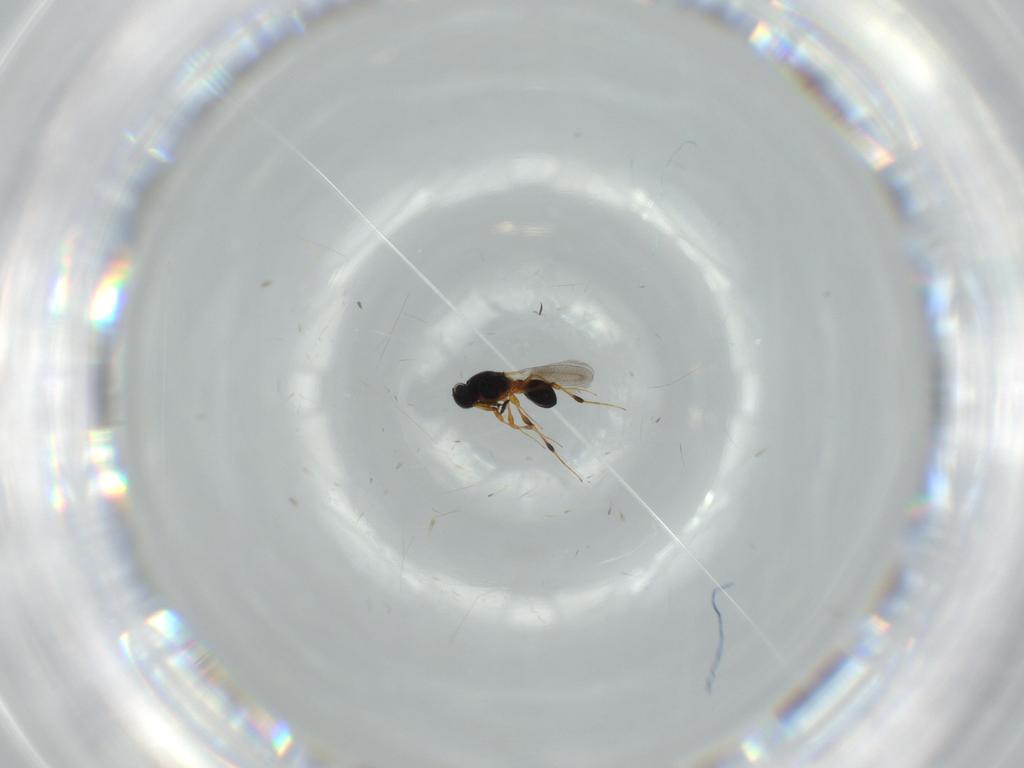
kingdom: Animalia
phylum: Arthropoda
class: Insecta
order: Hymenoptera
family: Platygastridae
